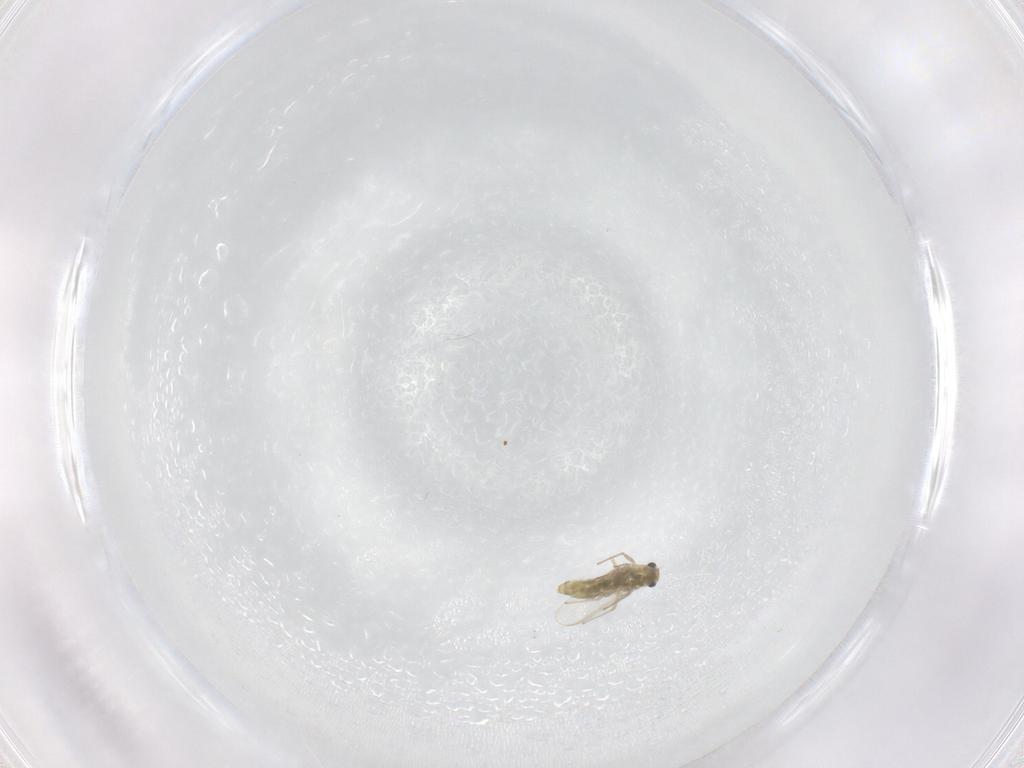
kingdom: Animalia
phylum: Arthropoda
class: Insecta
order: Diptera
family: Chironomidae
